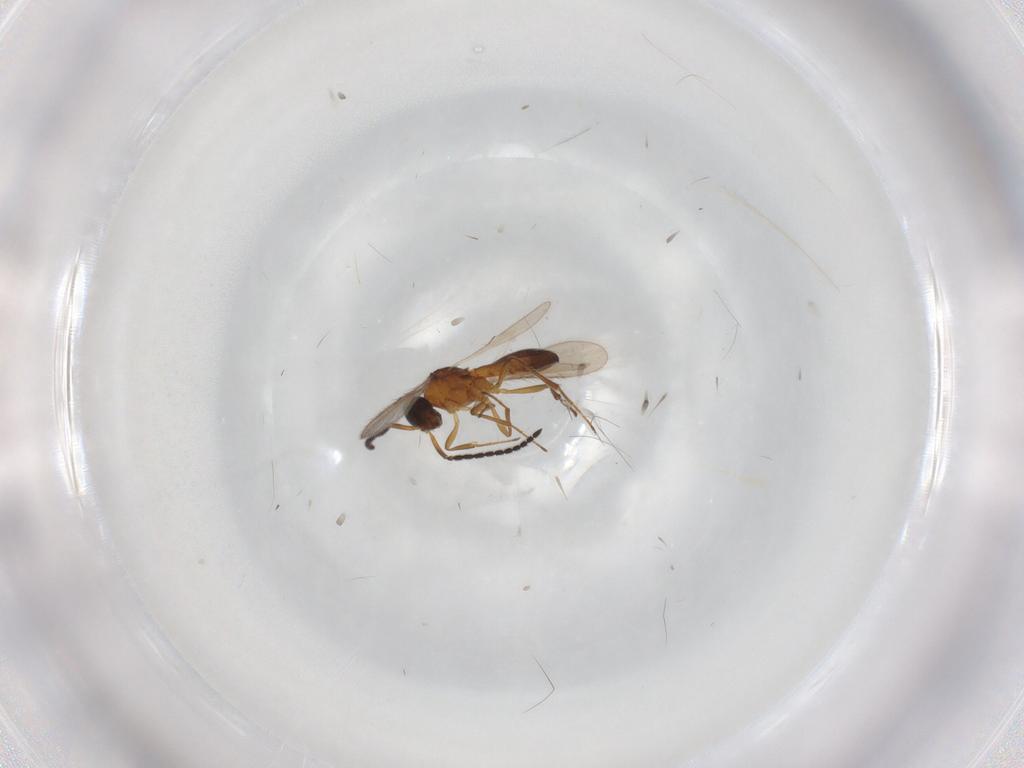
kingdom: Animalia
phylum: Arthropoda
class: Insecta
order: Hymenoptera
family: Scelionidae
